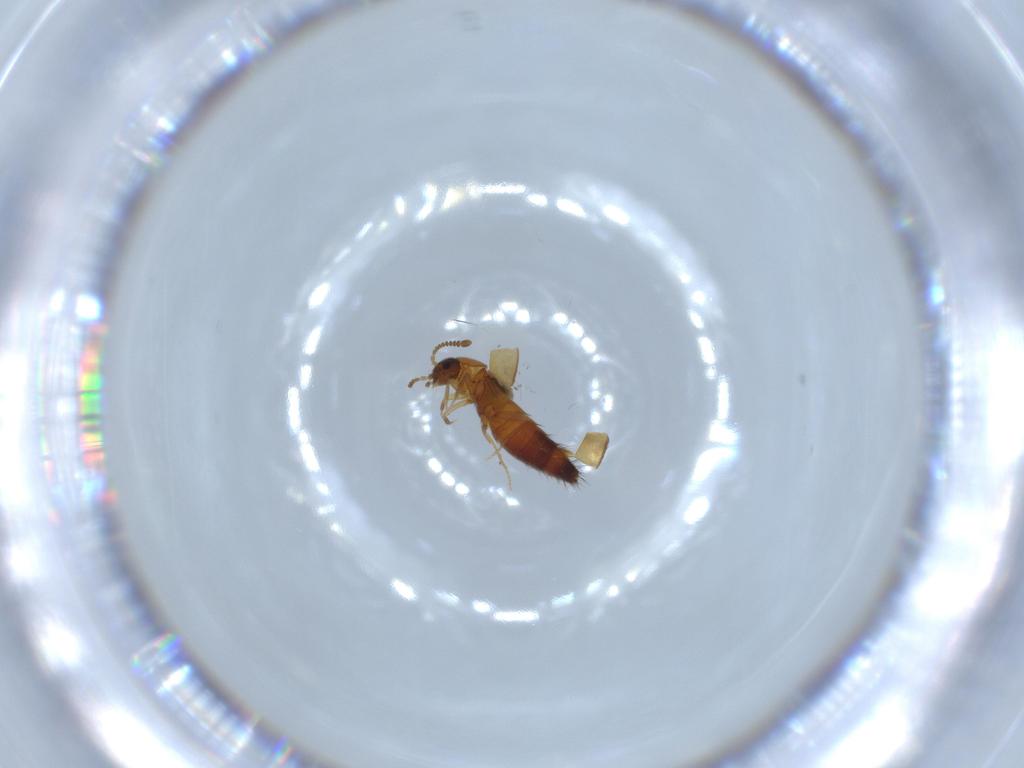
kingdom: Animalia
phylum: Arthropoda
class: Insecta
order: Coleoptera
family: Staphylinidae
